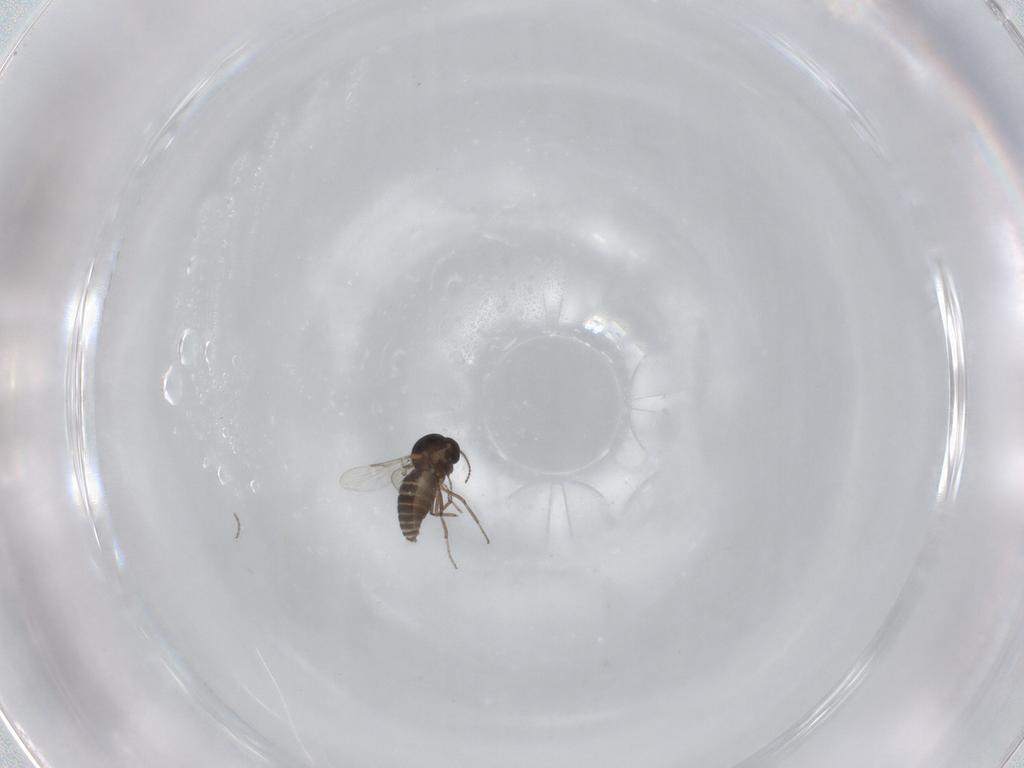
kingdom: Animalia
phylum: Arthropoda
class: Insecta
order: Diptera
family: Ceratopogonidae
